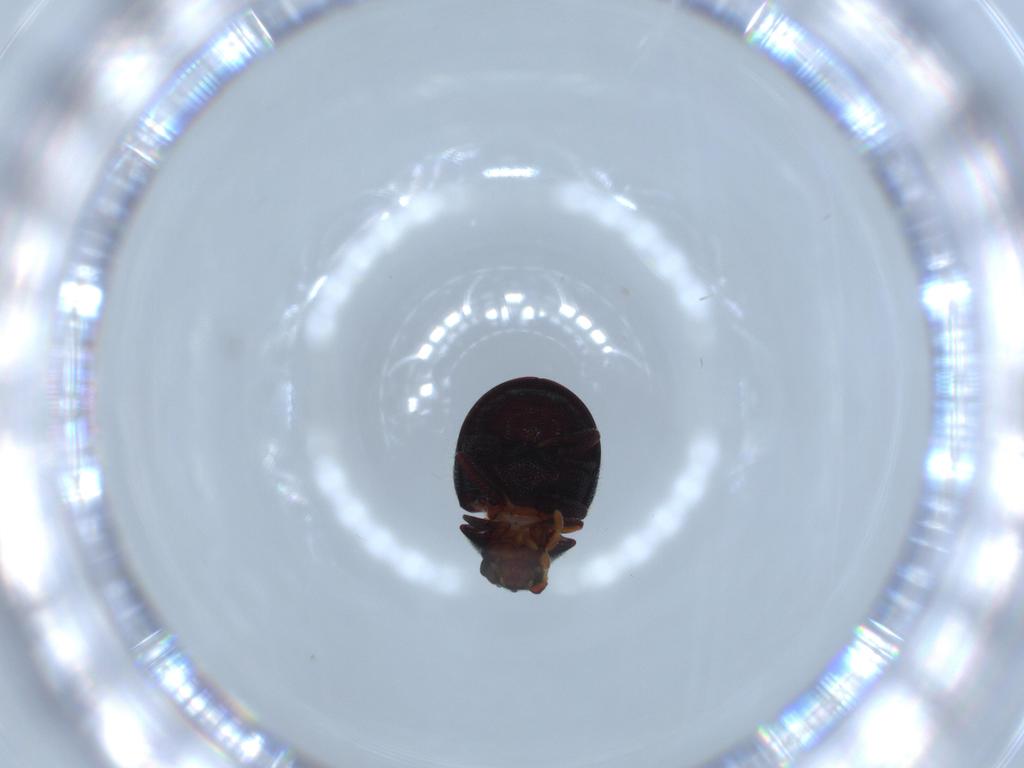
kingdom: Animalia
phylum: Arthropoda
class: Insecta
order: Coleoptera
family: Ptinidae
